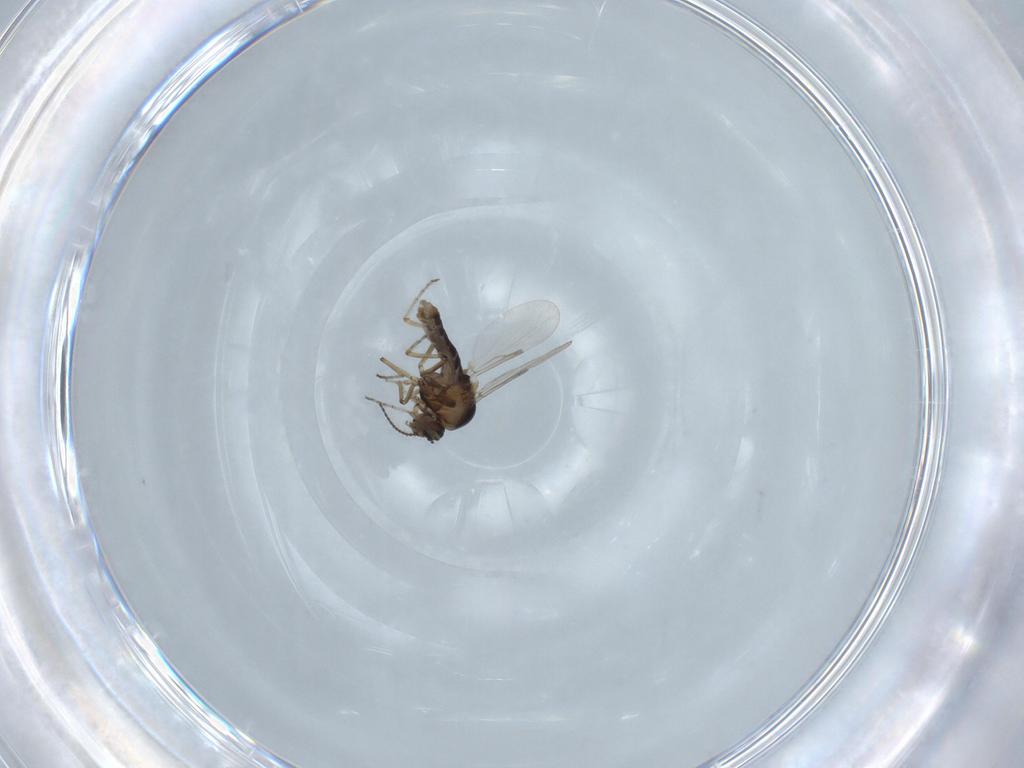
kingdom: Animalia
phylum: Arthropoda
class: Insecta
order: Diptera
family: Ceratopogonidae
